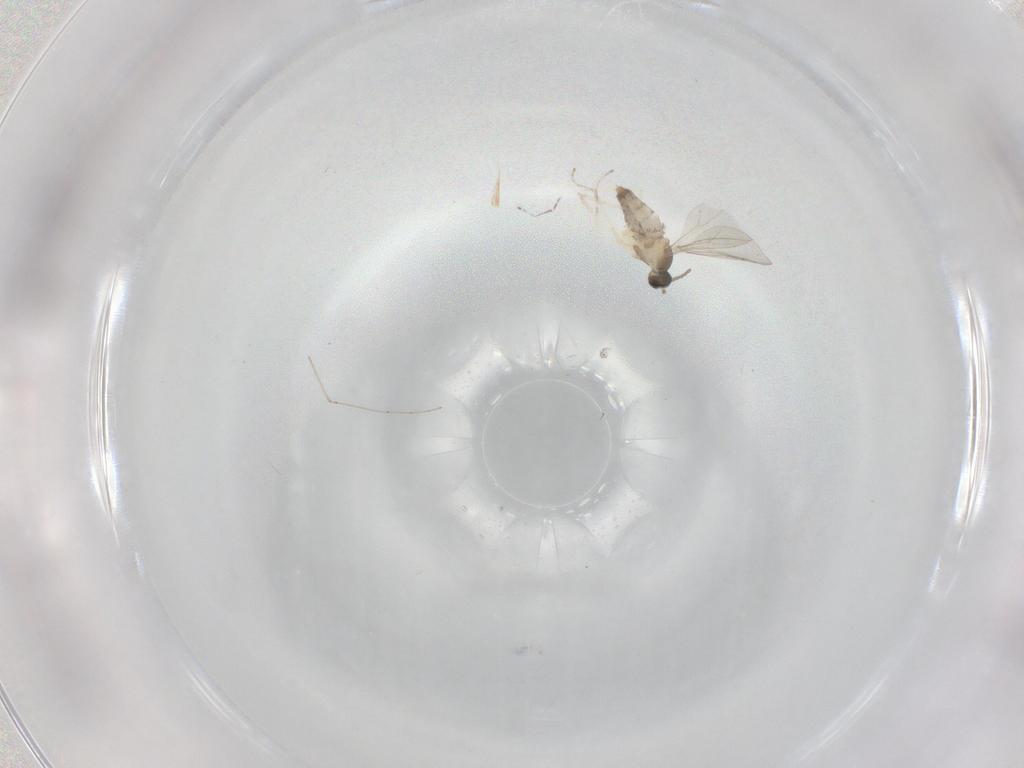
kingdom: Animalia
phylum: Arthropoda
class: Insecta
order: Diptera
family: Cecidomyiidae
